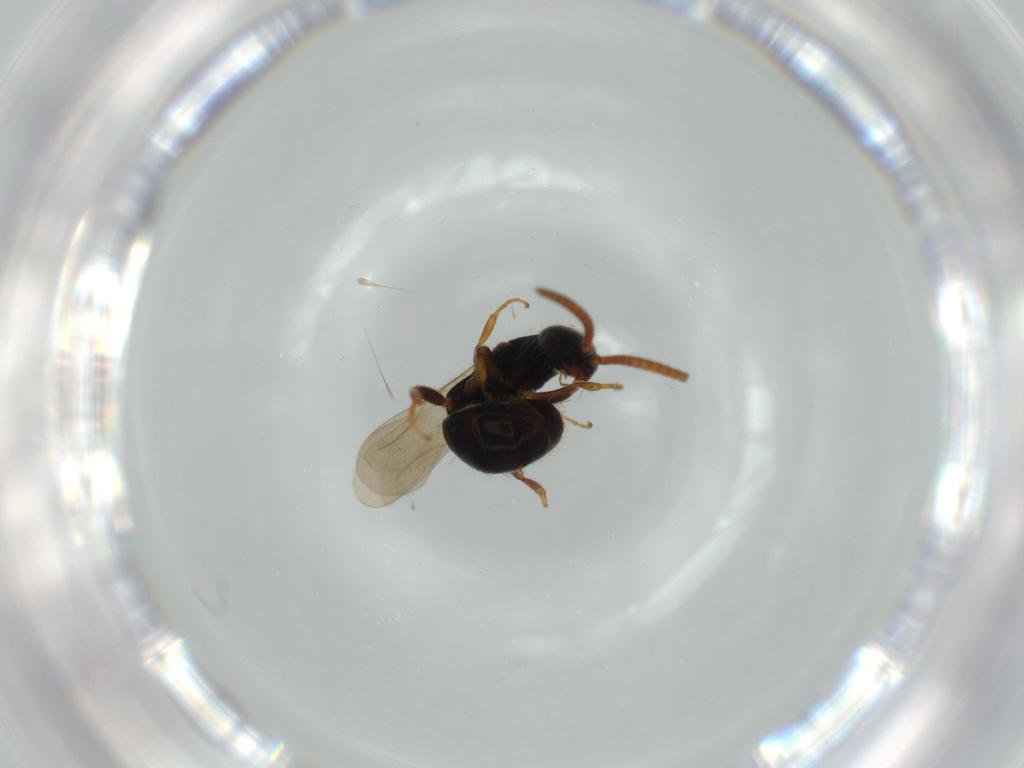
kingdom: Animalia
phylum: Arthropoda
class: Insecta
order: Hymenoptera
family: Bethylidae
